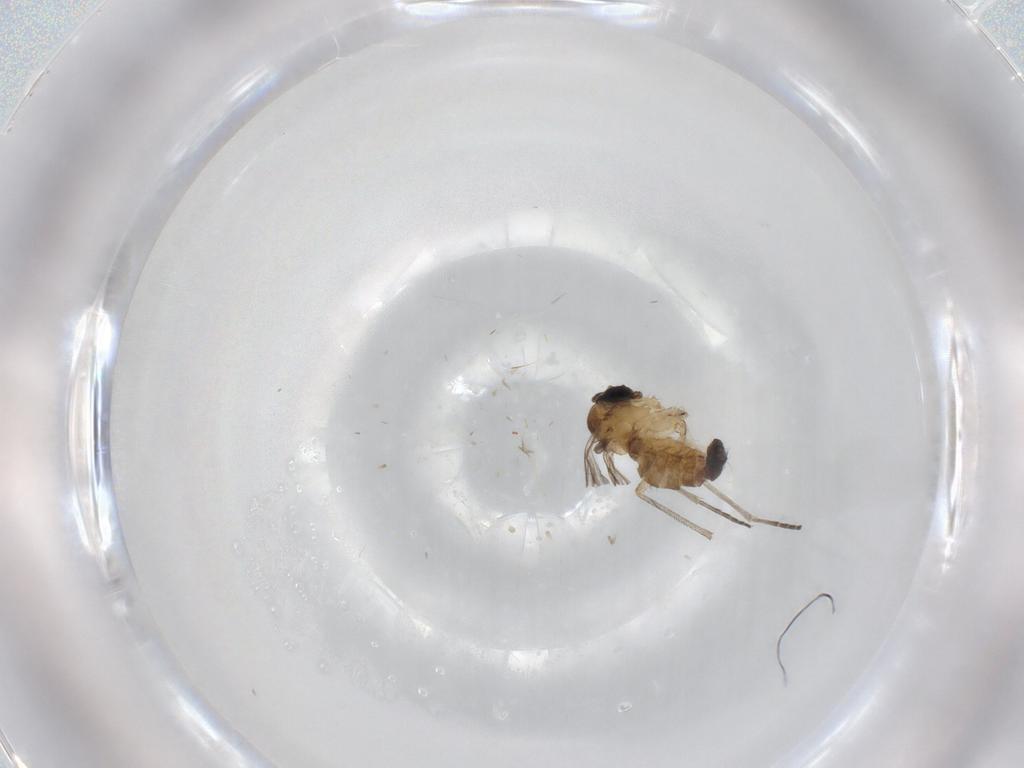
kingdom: Animalia
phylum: Arthropoda
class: Insecta
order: Diptera
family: Sciaridae
